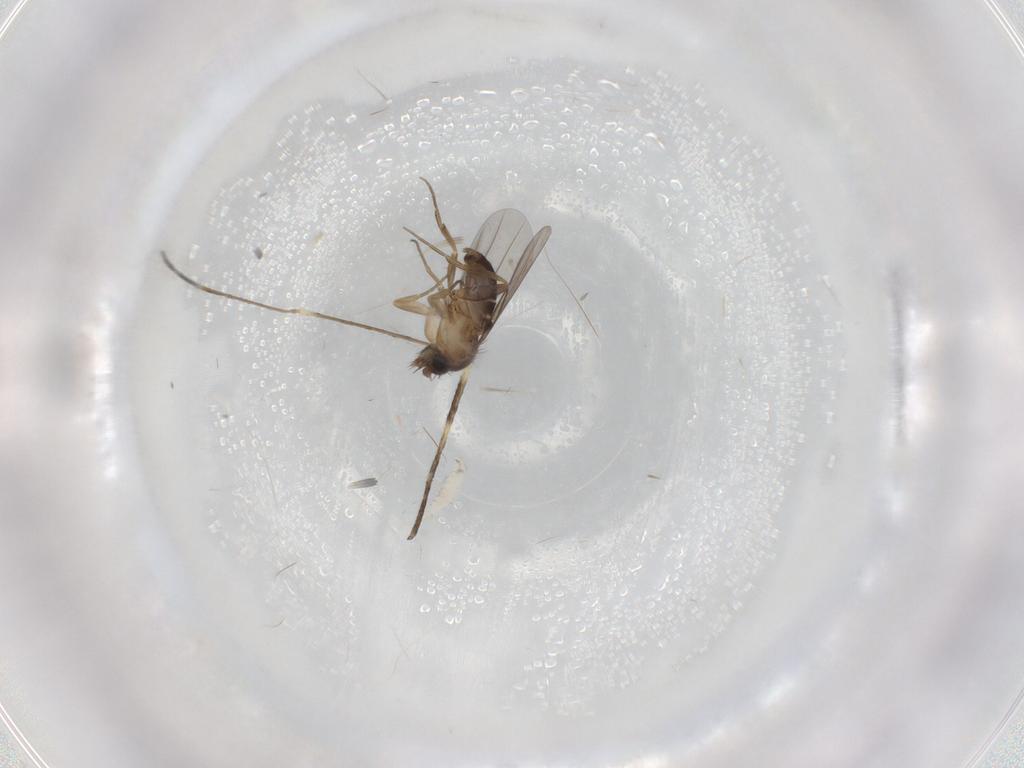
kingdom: Animalia
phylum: Arthropoda
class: Insecta
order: Diptera
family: Limoniidae
